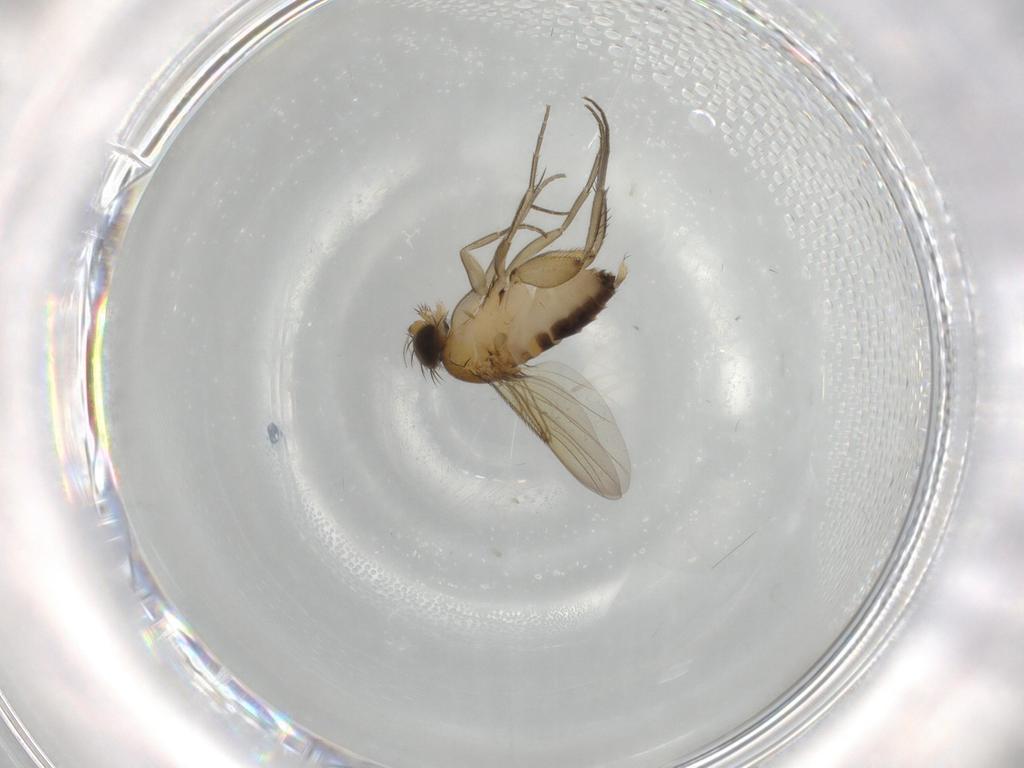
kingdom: Animalia
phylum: Arthropoda
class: Insecta
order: Diptera
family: Phoridae
